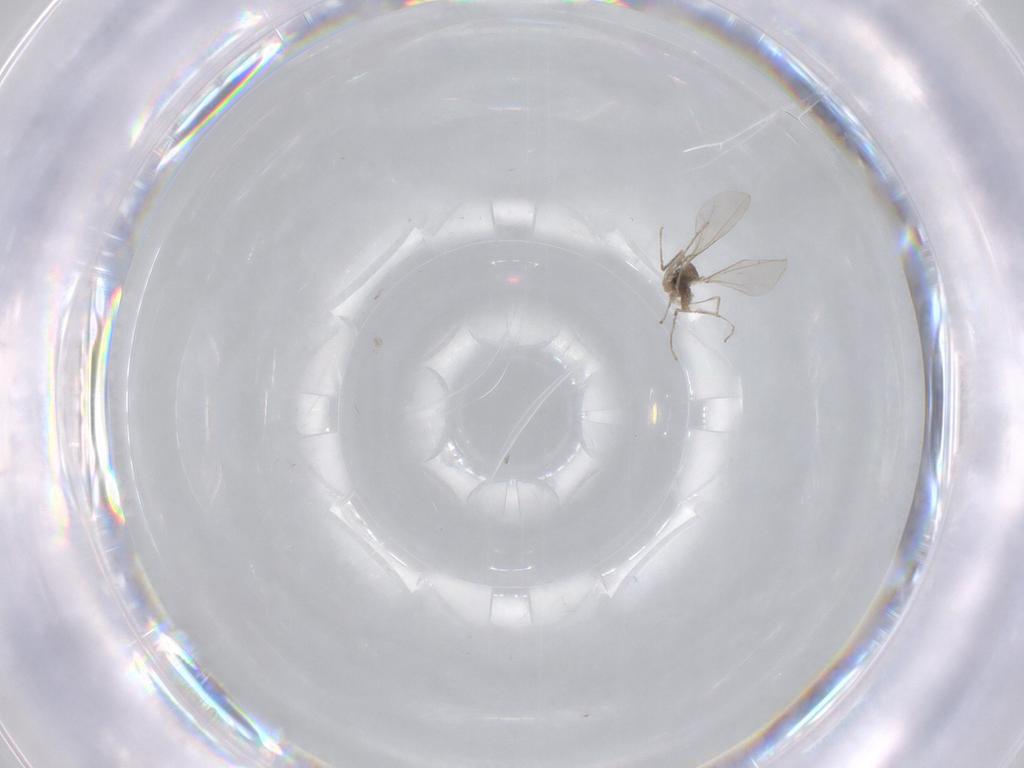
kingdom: Animalia
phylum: Arthropoda
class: Insecta
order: Diptera
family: Cecidomyiidae
